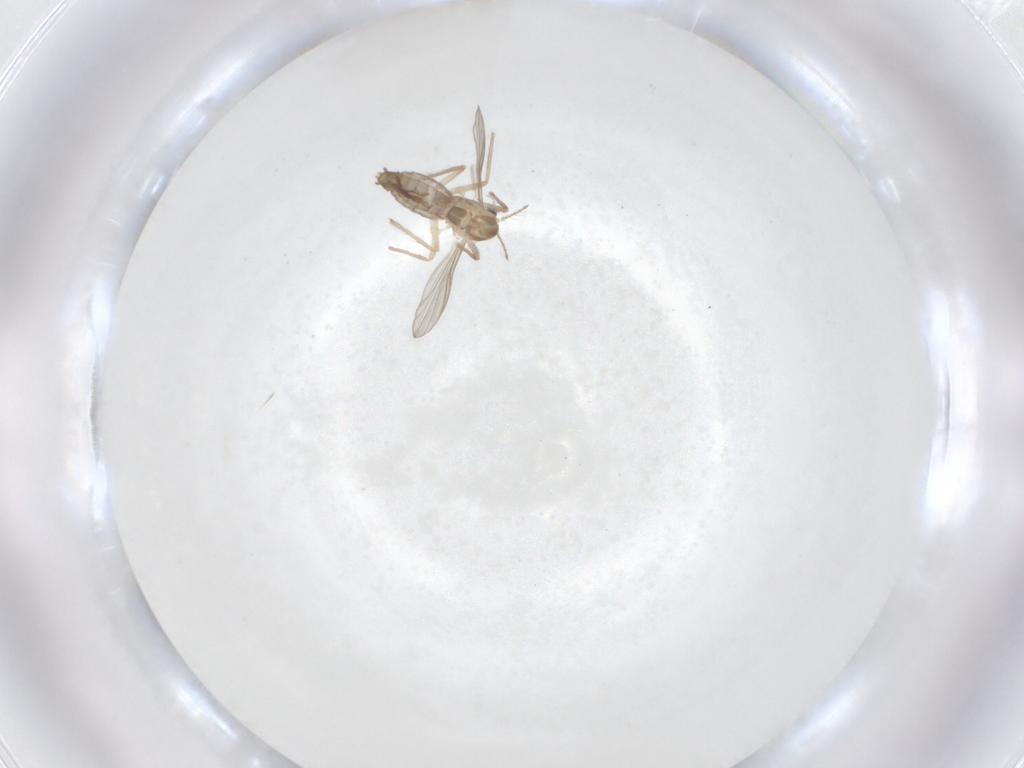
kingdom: Animalia
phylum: Arthropoda
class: Insecta
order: Diptera
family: Chironomidae
